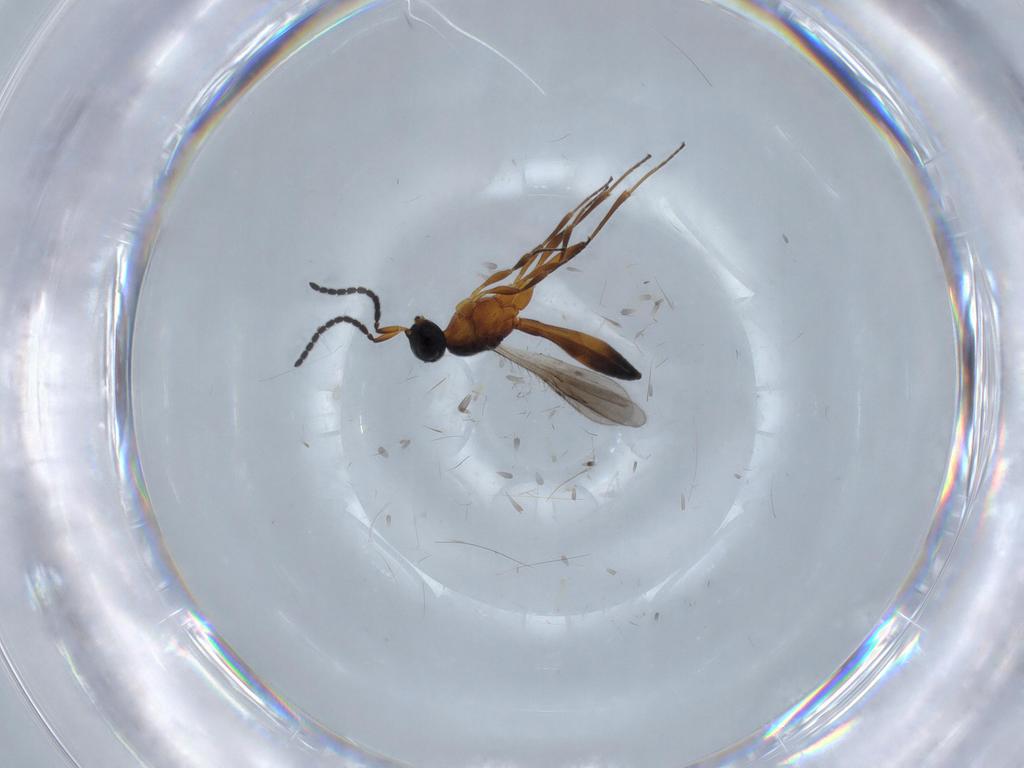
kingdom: Animalia
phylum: Arthropoda
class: Insecta
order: Hymenoptera
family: Scelionidae
